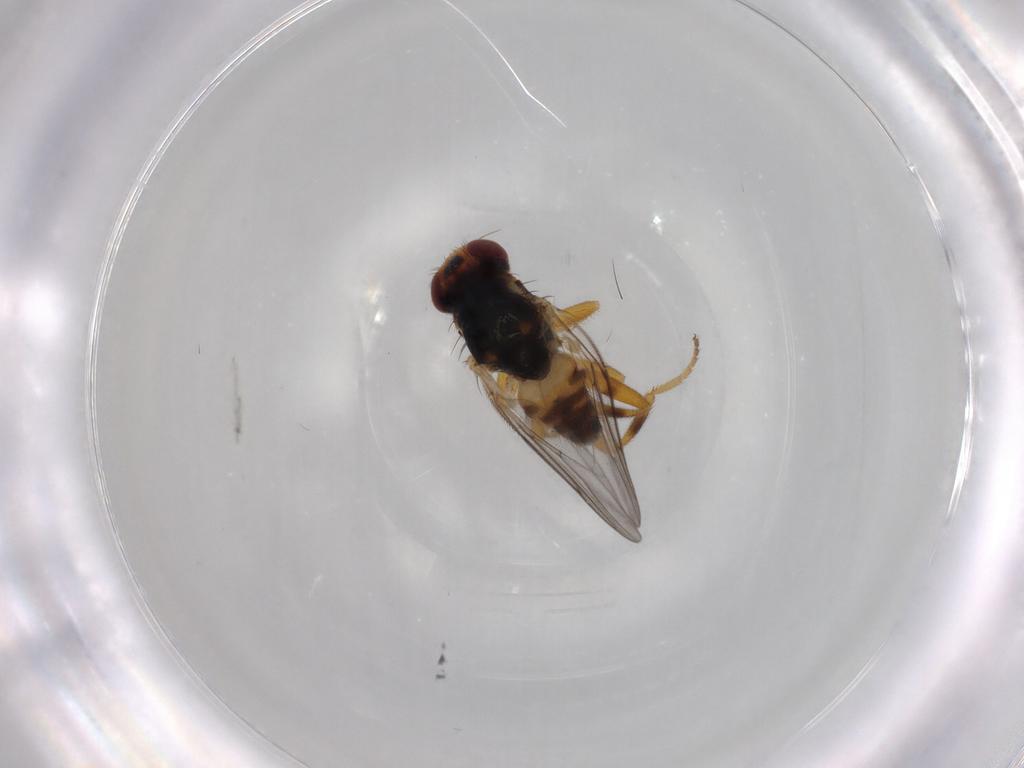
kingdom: Animalia
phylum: Arthropoda
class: Insecta
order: Diptera
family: Chloropidae
